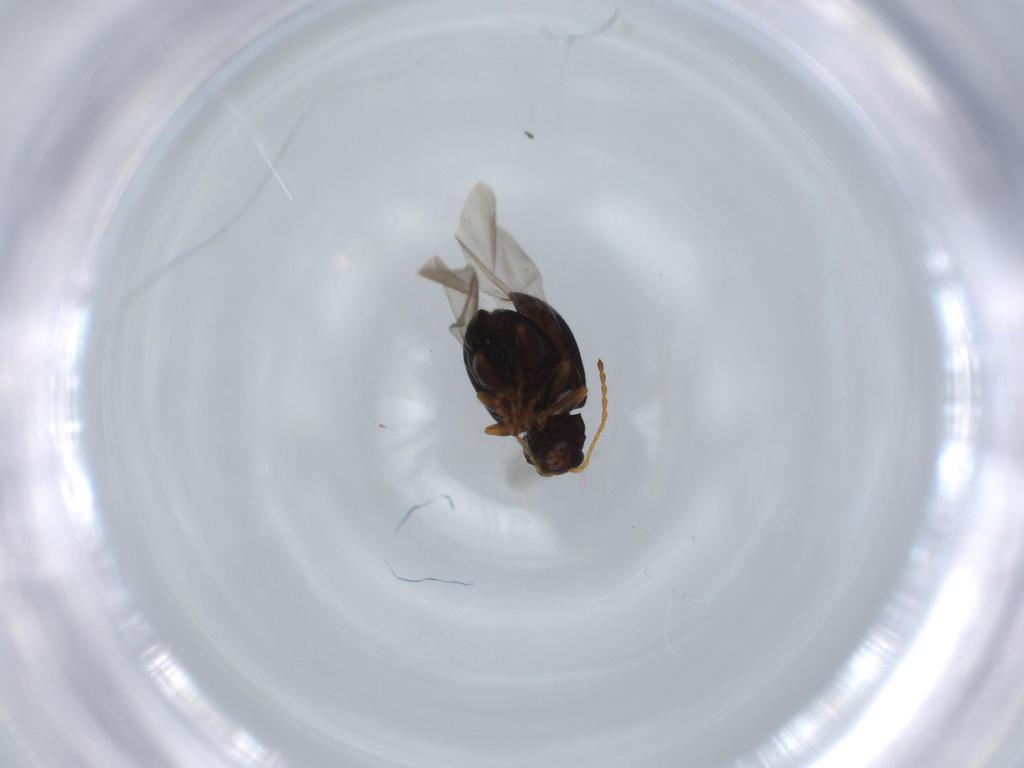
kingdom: Animalia
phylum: Arthropoda
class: Insecta
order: Coleoptera
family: Chrysomelidae
